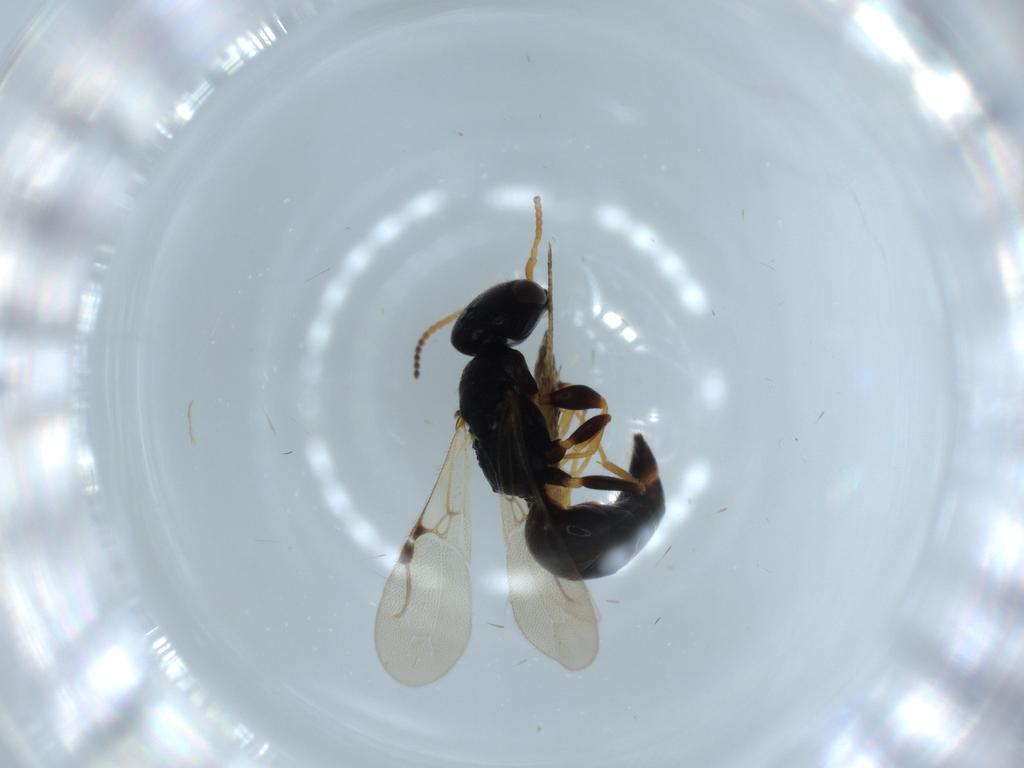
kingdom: Animalia
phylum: Arthropoda
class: Insecta
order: Hymenoptera
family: Bethylidae
